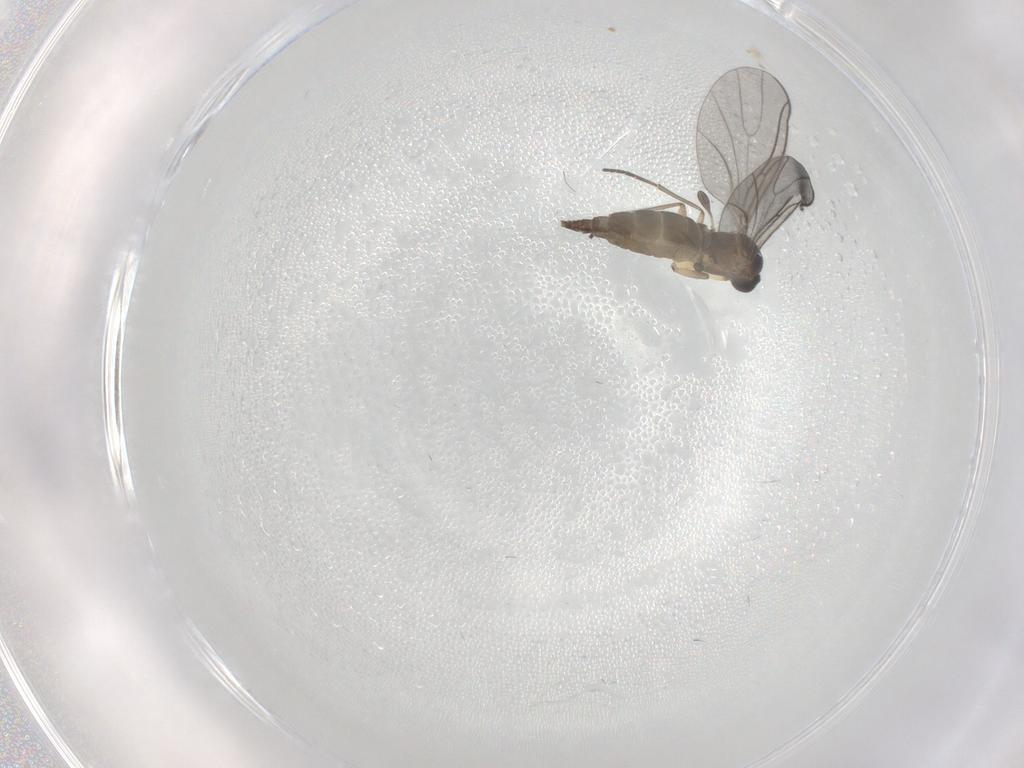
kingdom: Animalia
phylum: Arthropoda
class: Insecta
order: Diptera
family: Sciaridae
